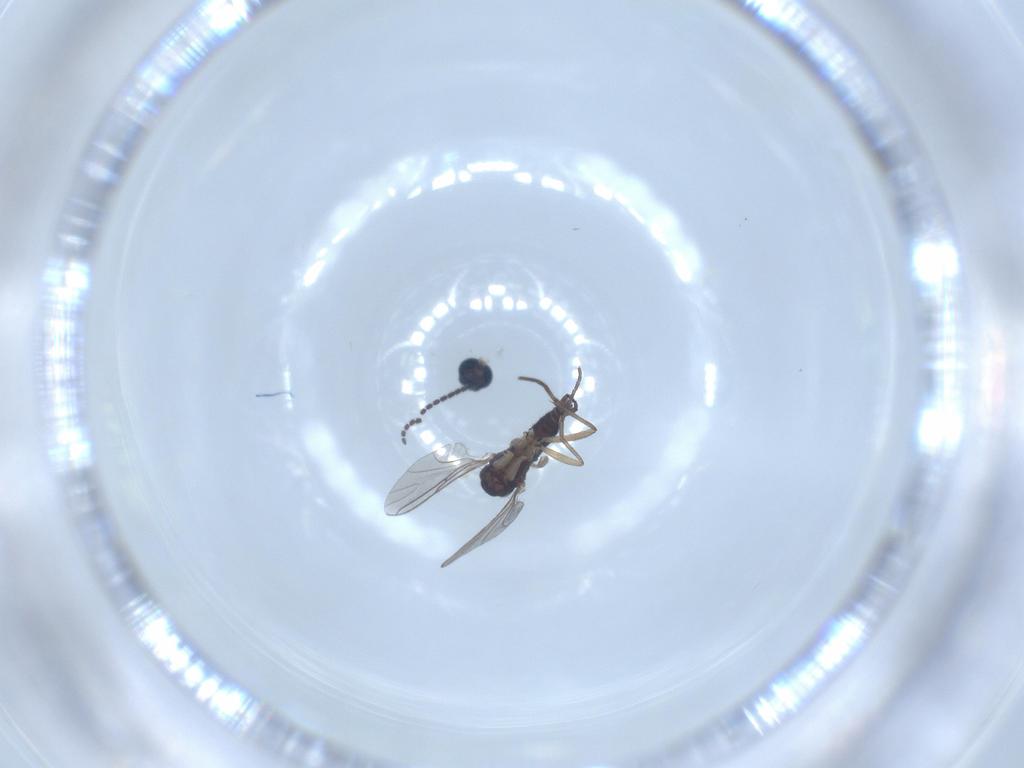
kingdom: Animalia
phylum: Arthropoda
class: Insecta
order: Diptera
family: Sciaridae
